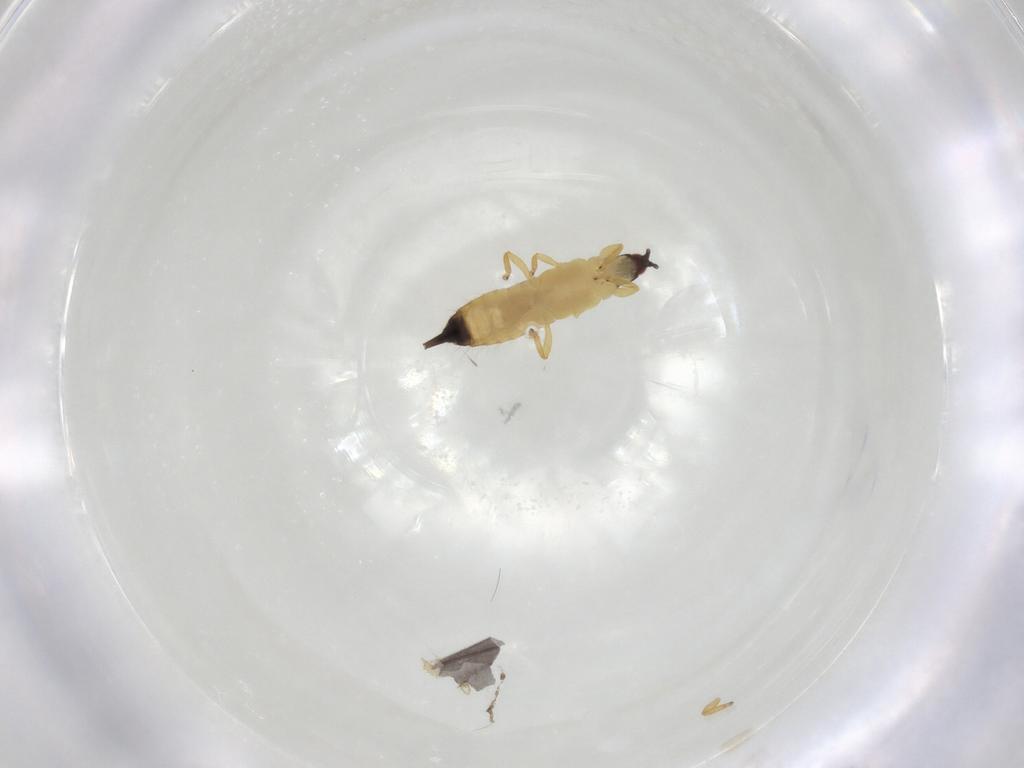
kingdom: Animalia
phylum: Arthropoda
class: Insecta
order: Thysanoptera
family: Phlaeothripidae
